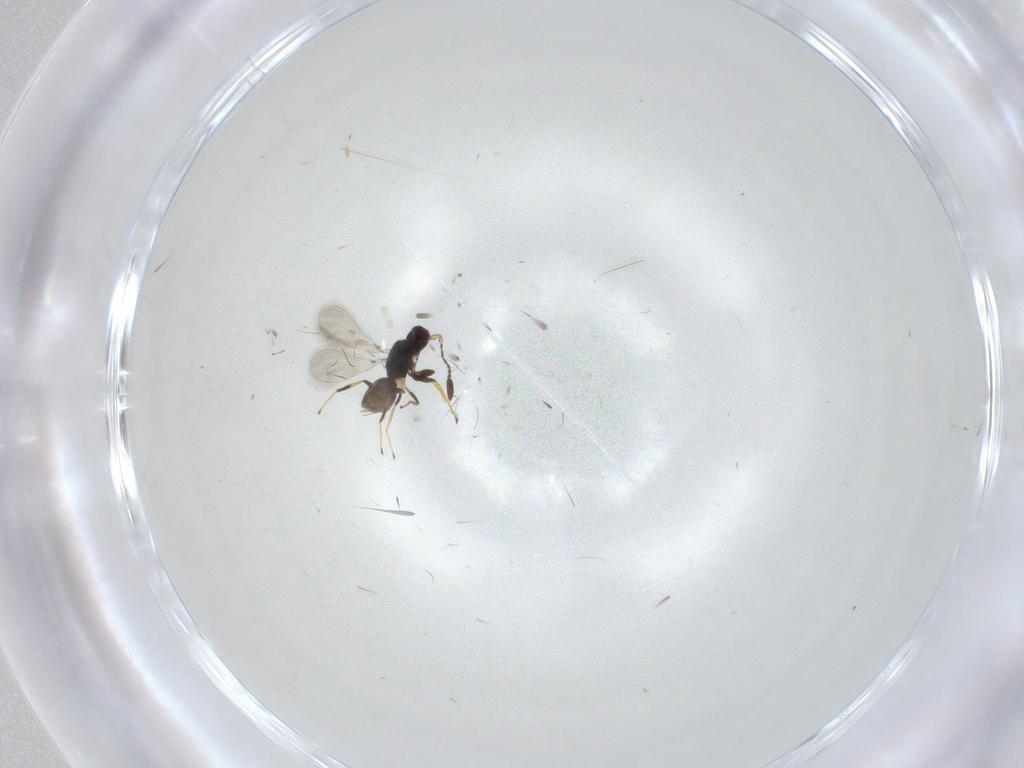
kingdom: Animalia
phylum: Arthropoda
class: Insecta
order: Hymenoptera
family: Mymaridae
